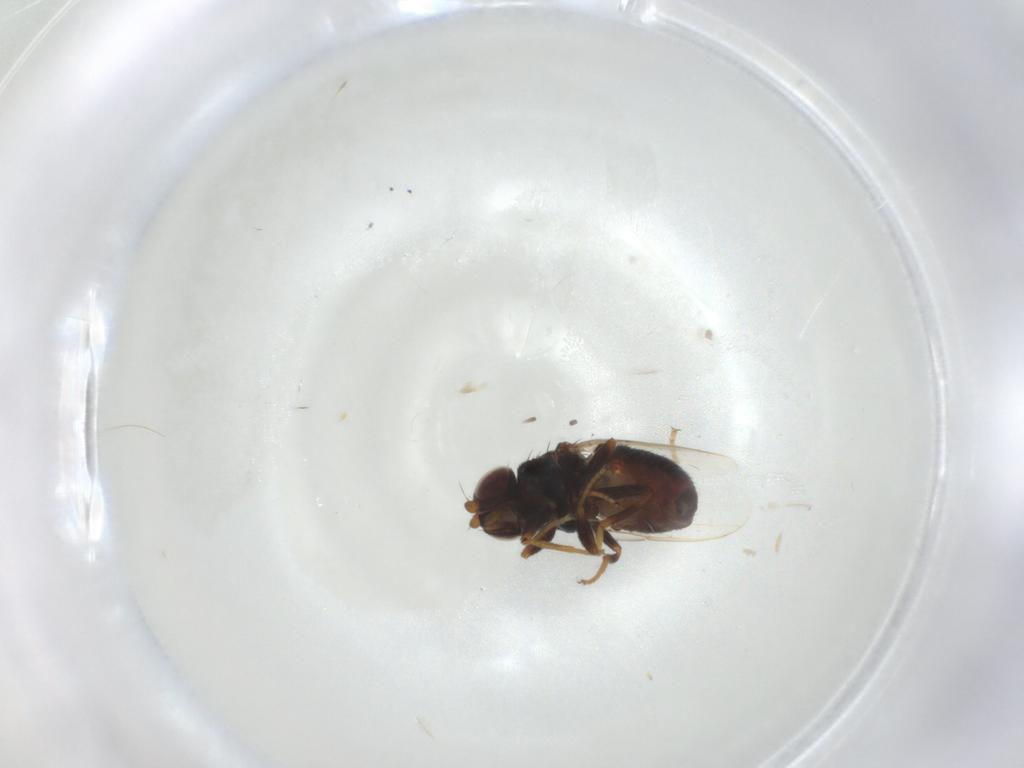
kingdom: Animalia
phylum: Arthropoda
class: Insecta
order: Diptera
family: Chloropidae
